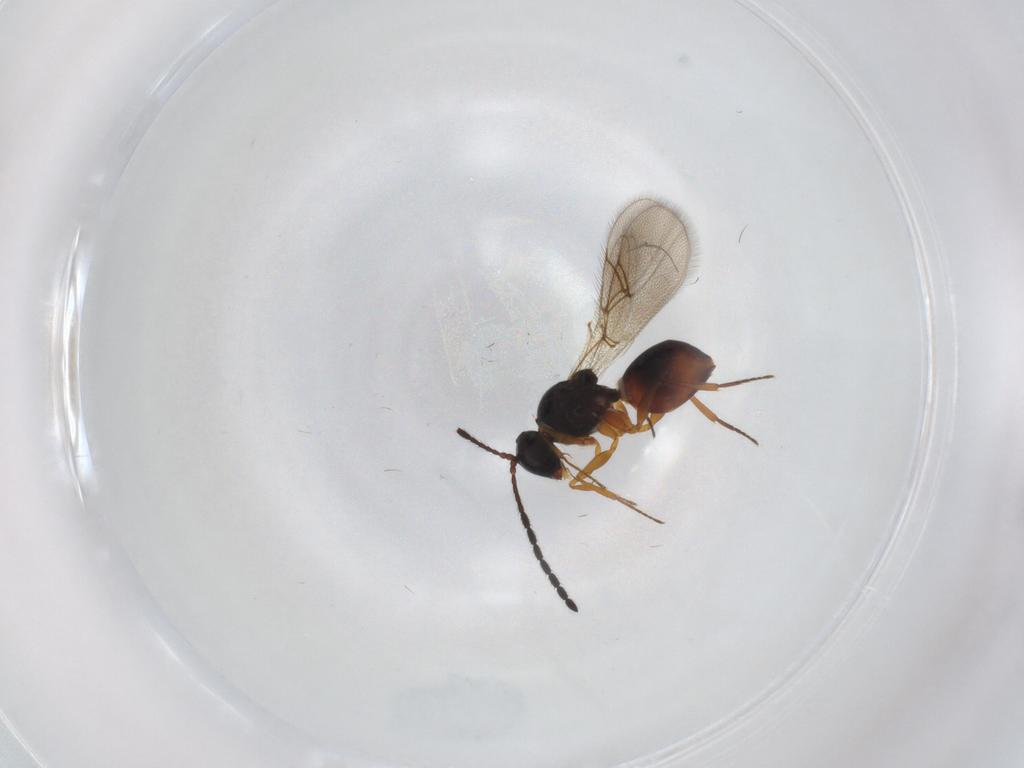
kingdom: Animalia
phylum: Arthropoda
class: Insecta
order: Hymenoptera
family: Figitidae
